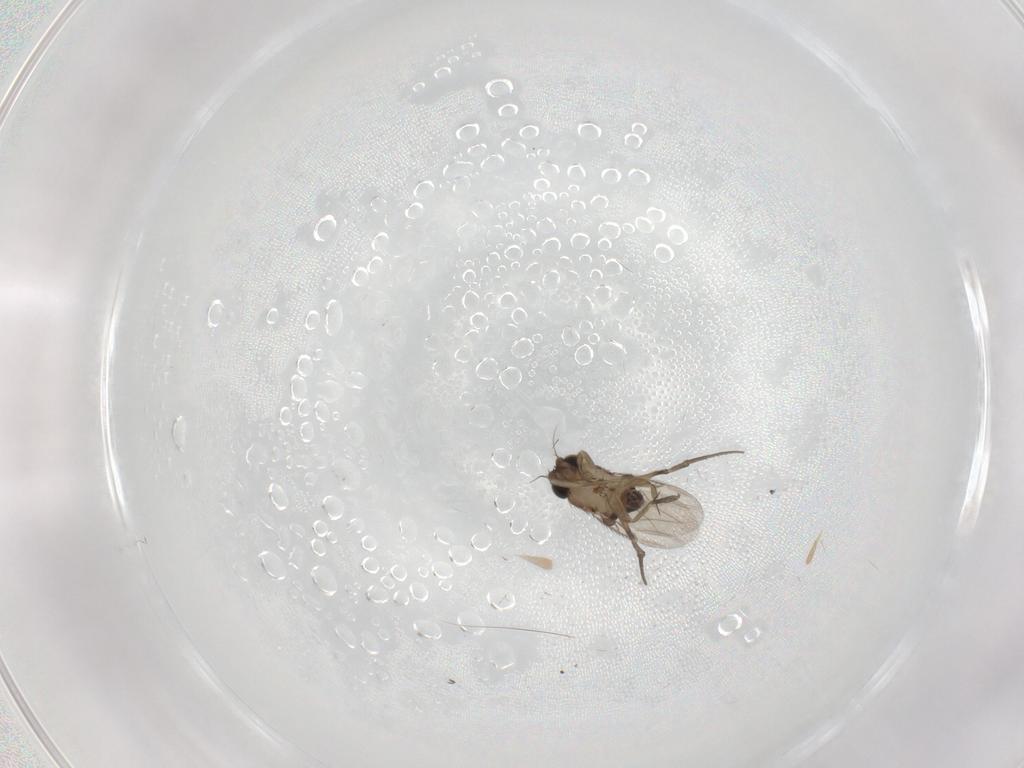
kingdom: Animalia
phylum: Arthropoda
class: Insecta
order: Diptera
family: Phoridae
